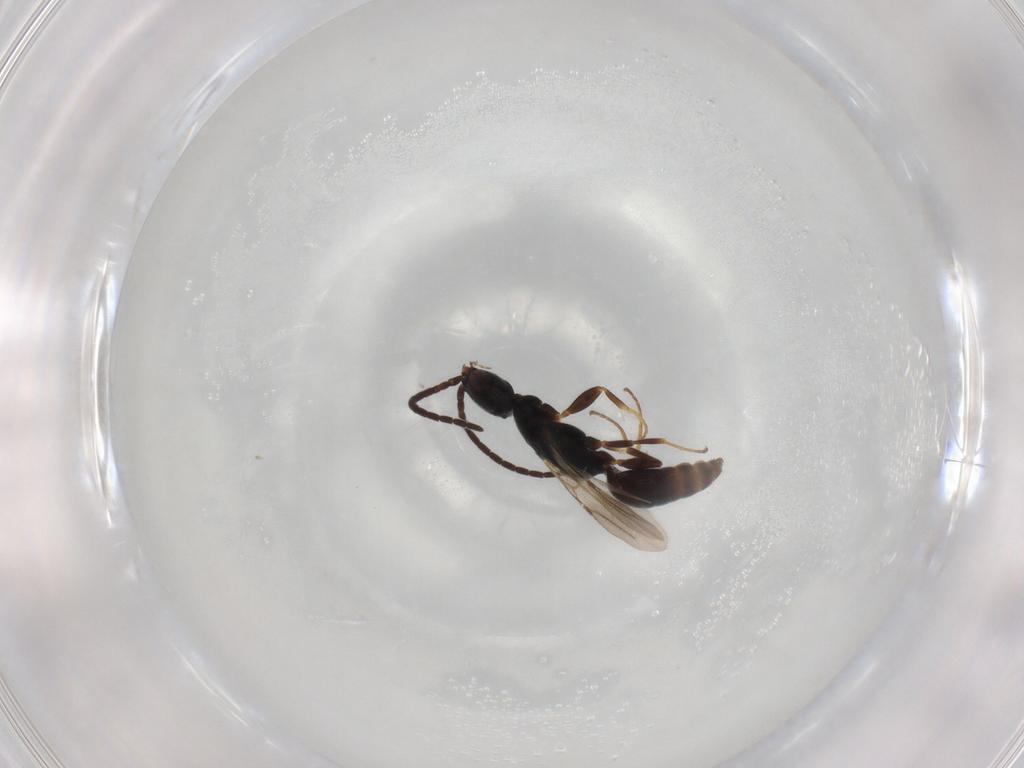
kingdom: Animalia
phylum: Arthropoda
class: Insecta
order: Hymenoptera
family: Bethylidae
